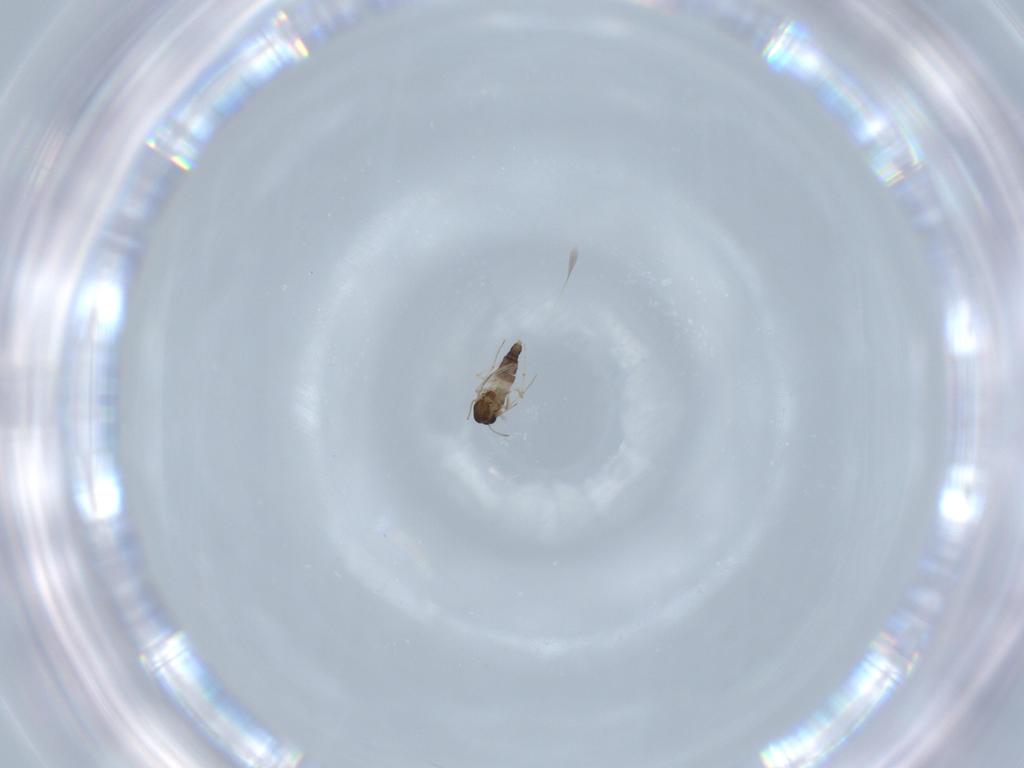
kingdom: Animalia
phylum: Arthropoda
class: Insecta
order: Diptera
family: Chironomidae
